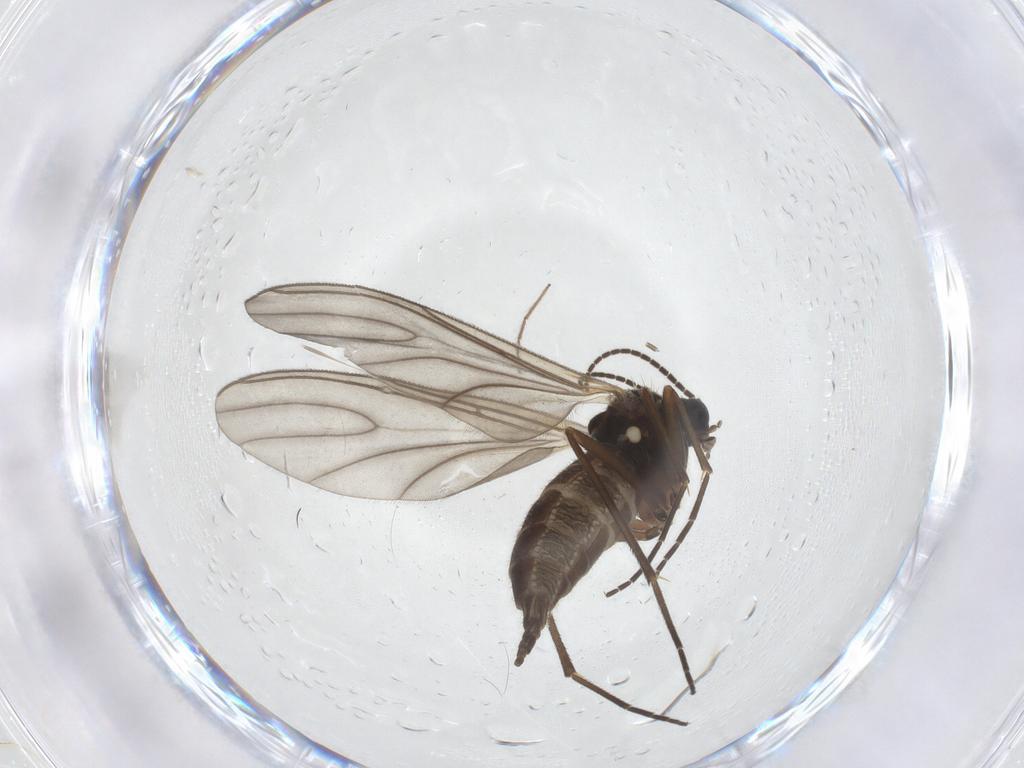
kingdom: Animalia
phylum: Arthropoda
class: Insecta
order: Diptera
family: Sciaridae
